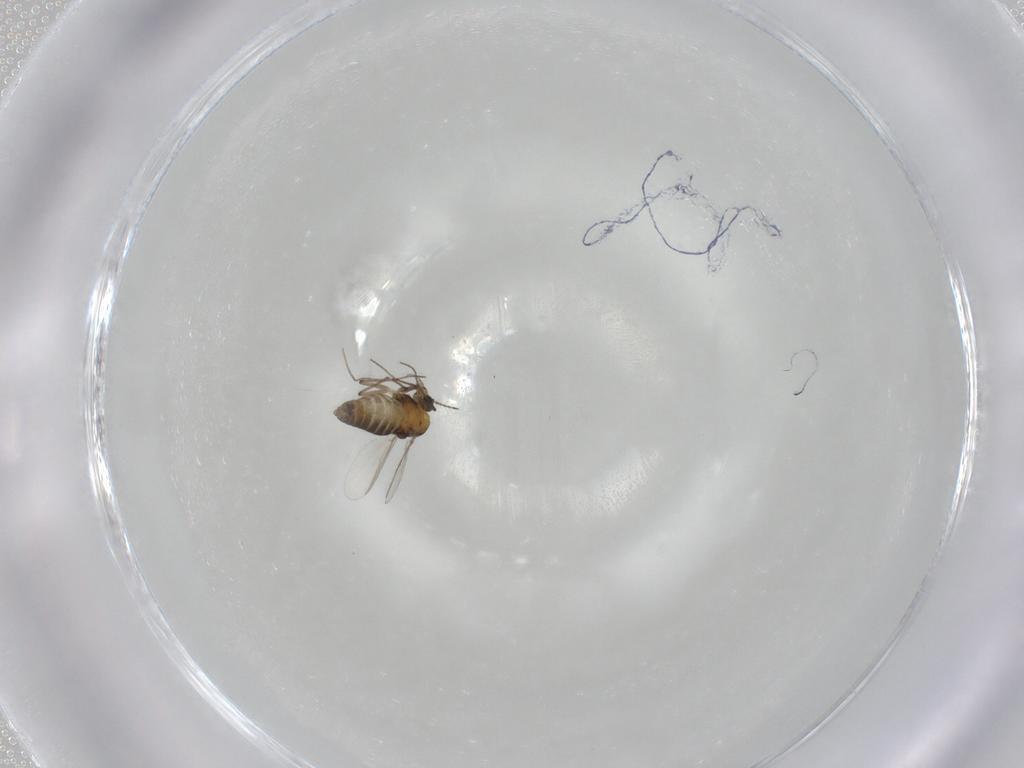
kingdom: Animalia
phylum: Arthropoda
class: Insecta
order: Diptera
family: Chironomidae
